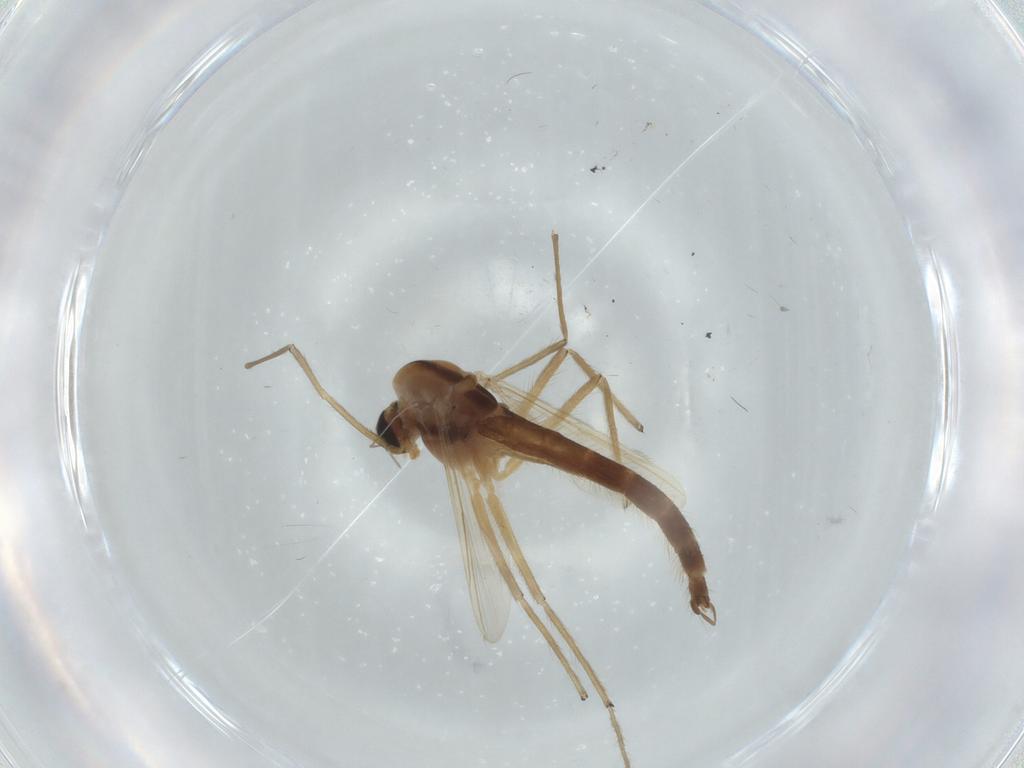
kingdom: Animalia
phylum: Arthropoda
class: Insecta
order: Diptera
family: Chironomidae
